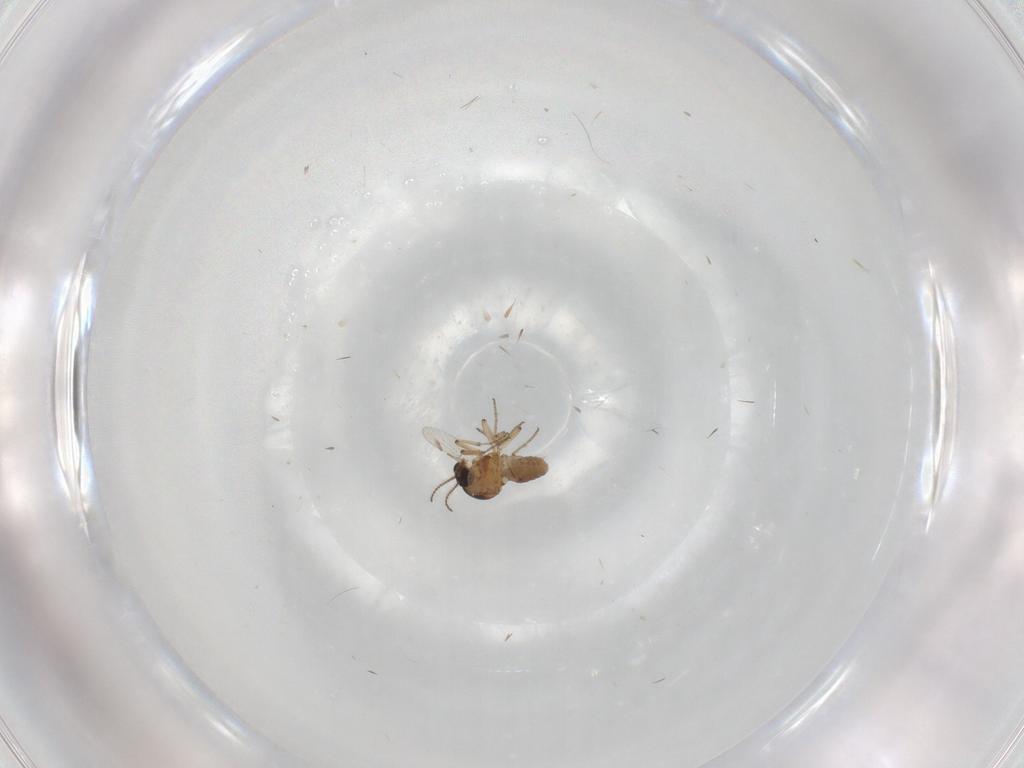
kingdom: Animalia
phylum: Arthropoda
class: Insecta
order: Diptera
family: Ceratopogonidae
